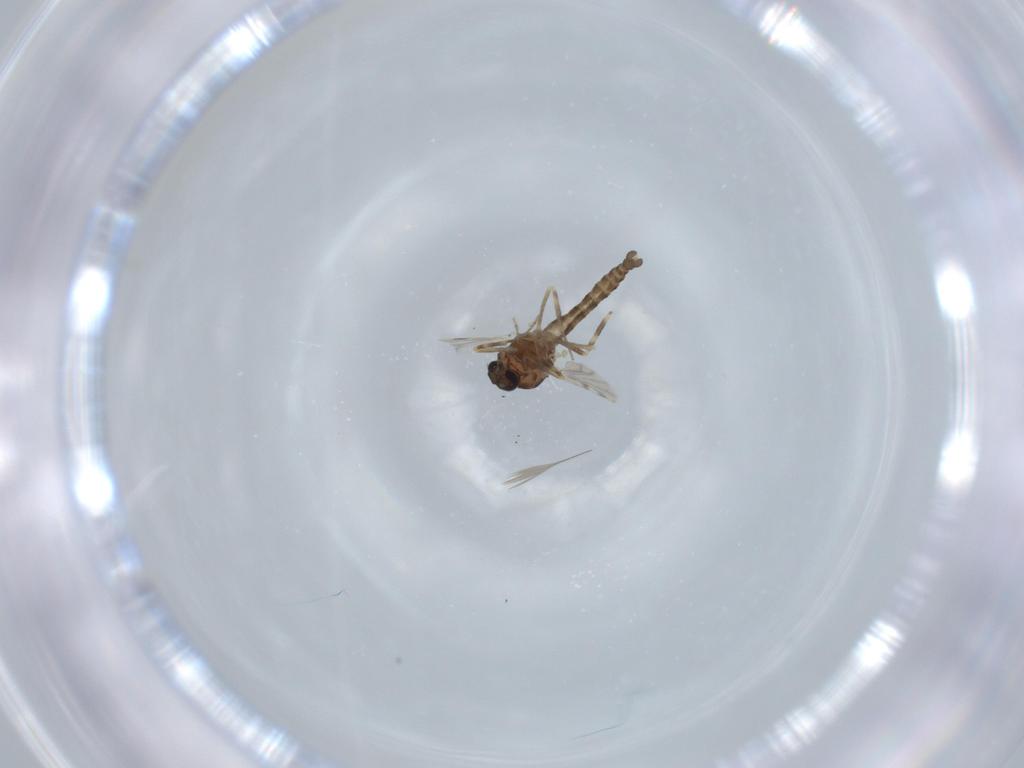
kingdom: Animalia
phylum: Arthropoda
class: Insecta
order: Diptera
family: Ceratopogonidae
